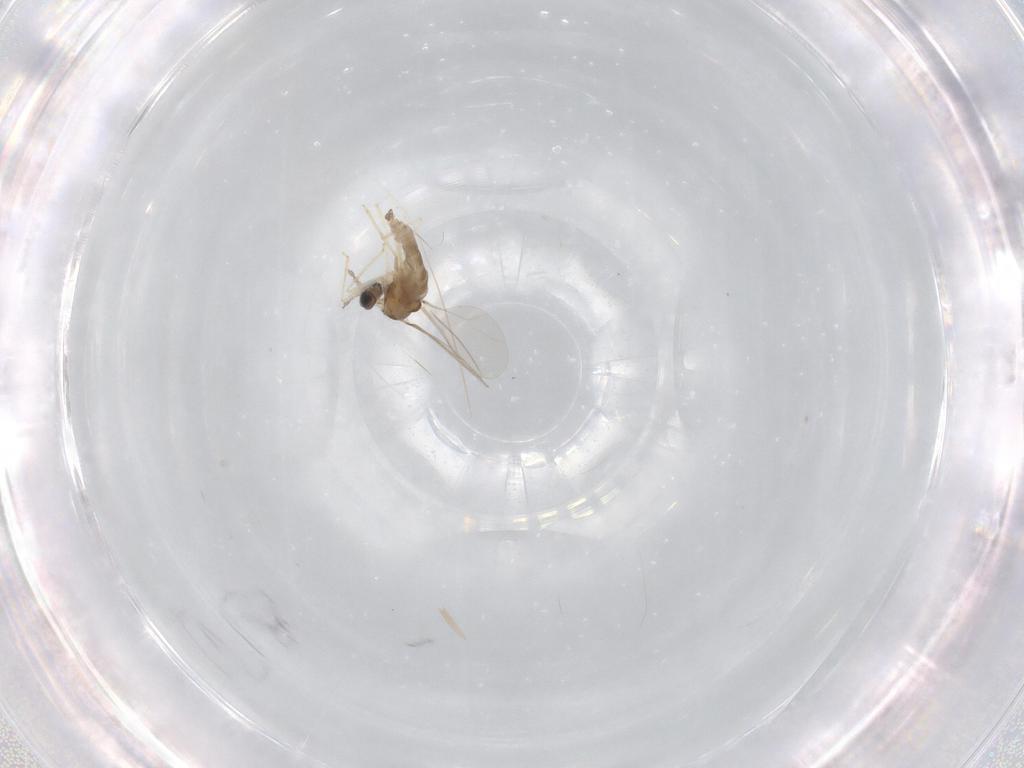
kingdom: Animalia
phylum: Arthropoda
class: Insecta
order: Diptera
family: Cecidomyiidae
